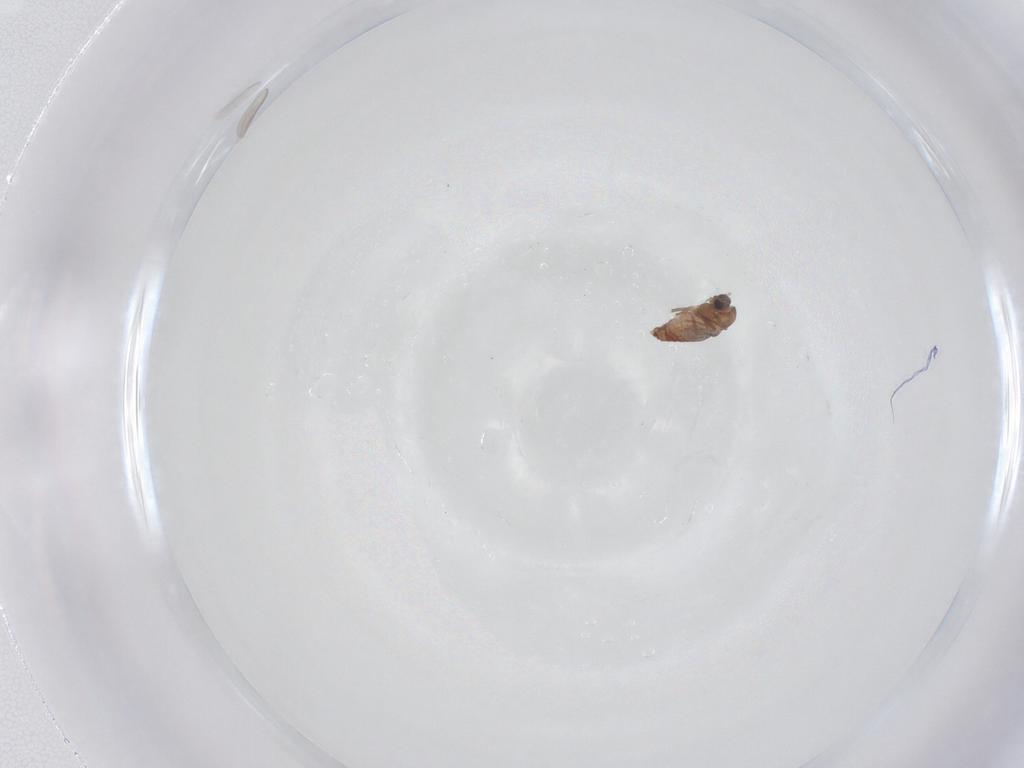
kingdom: Animalia
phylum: Arthropoda
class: Insecta
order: Diptera
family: Chironomidae
